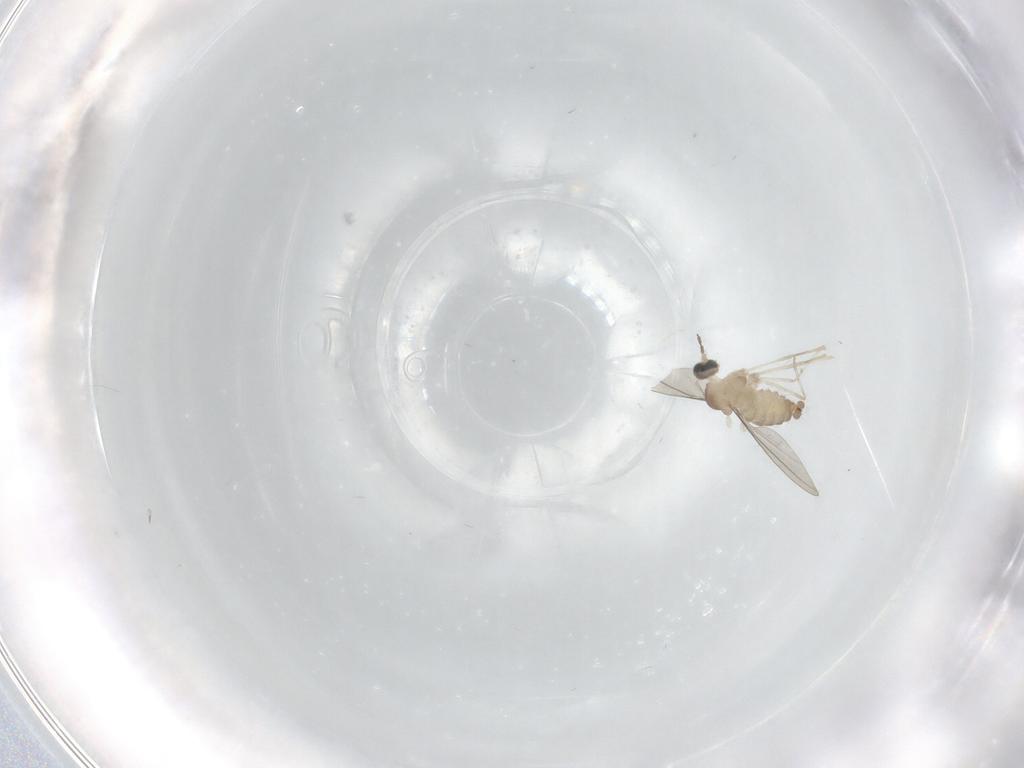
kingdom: Animalia
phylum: Arthropoda
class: Insecta
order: Diptera
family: Cecidomyiidae
